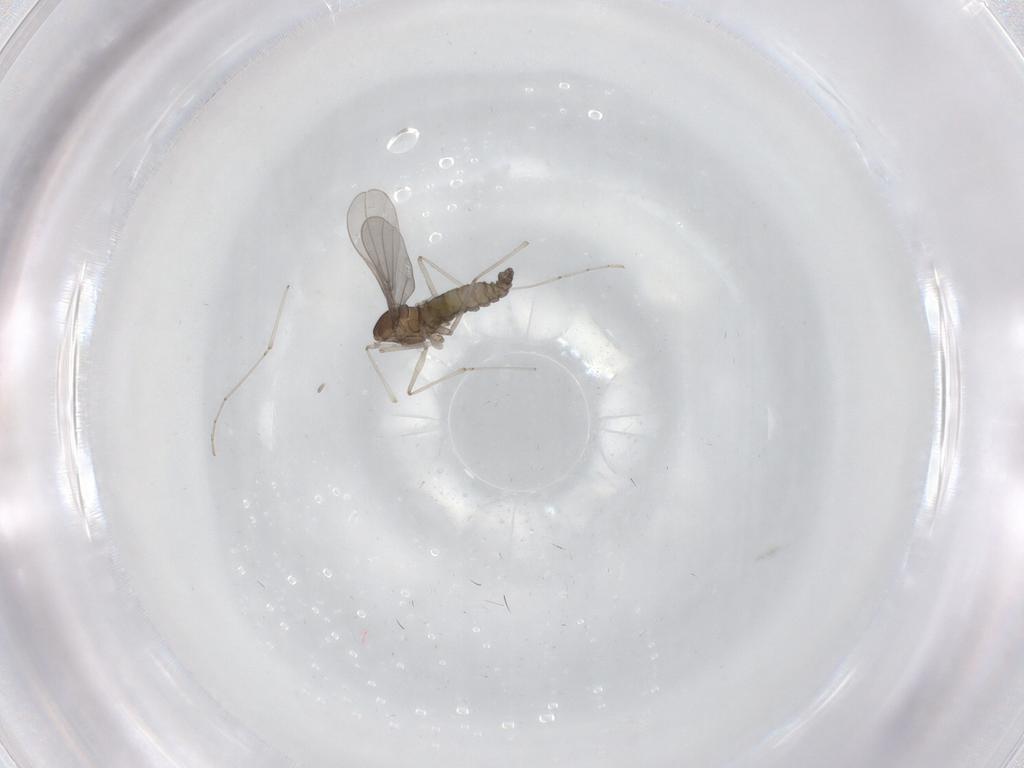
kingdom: Animalia
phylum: Arthropoda
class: Insecta
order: Diptera
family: Cecidomyiidae
